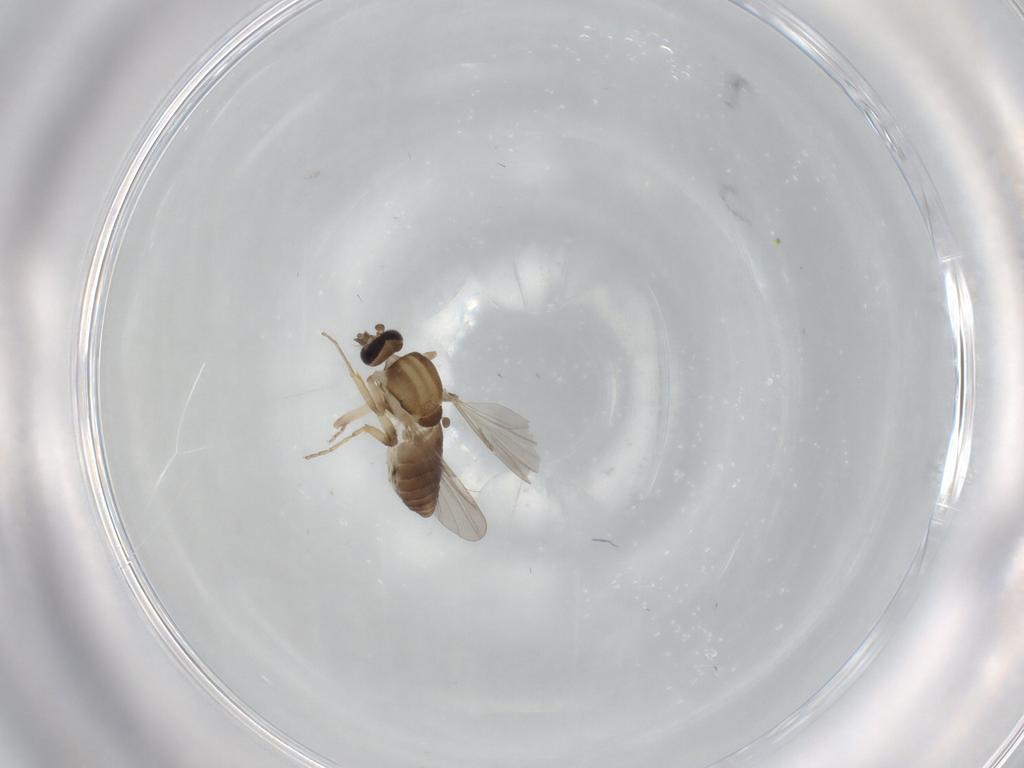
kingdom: Animalia
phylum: Arthropoda
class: Insecta
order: Diptera
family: Ceratopogonidae
